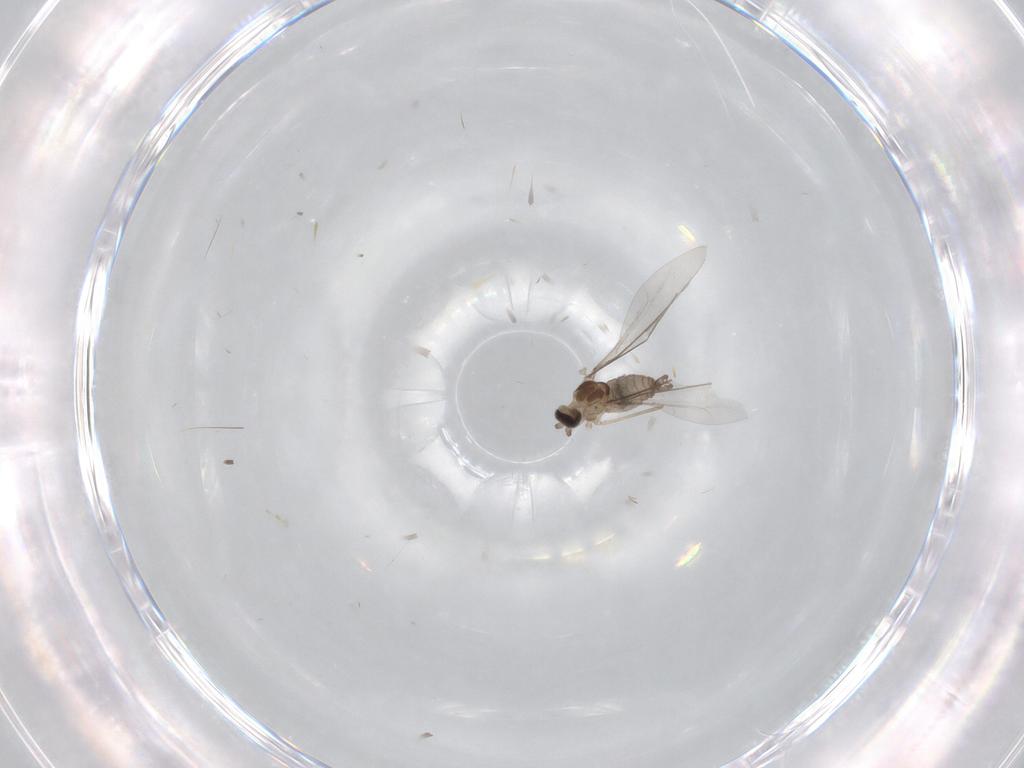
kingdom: Animalia
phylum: Arthropoda
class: Insecta
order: Diptera
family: Cecidomyiidae
